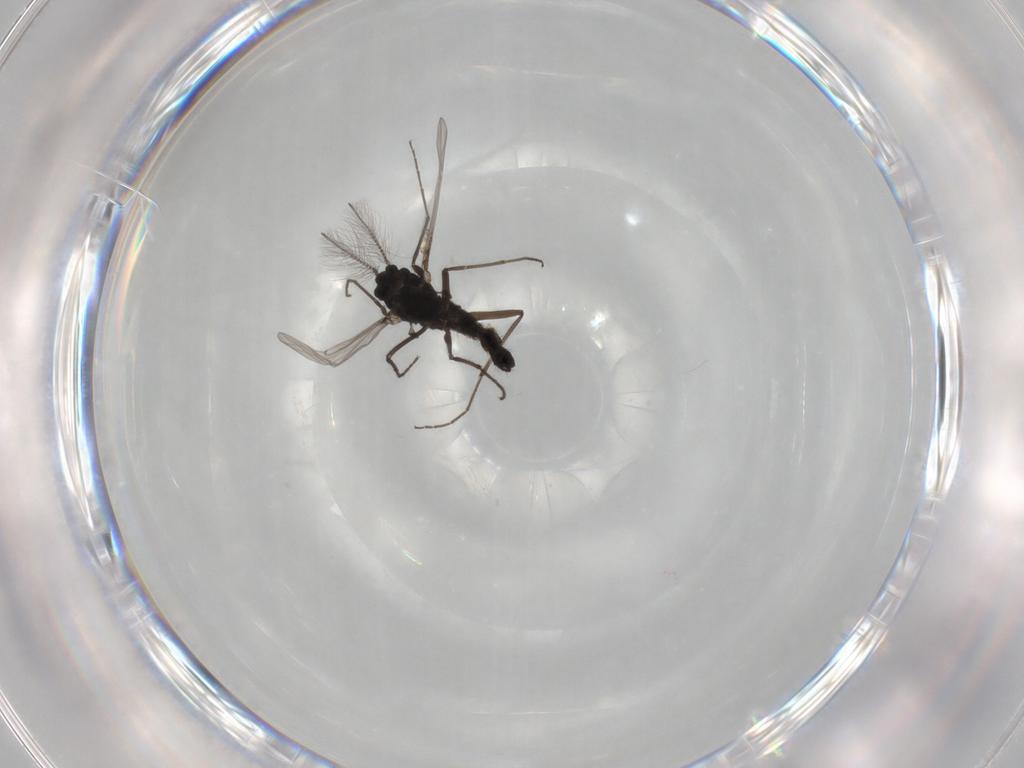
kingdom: Animalia
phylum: Arthropoda
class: Insecta
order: Diptera
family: Chironomidae
